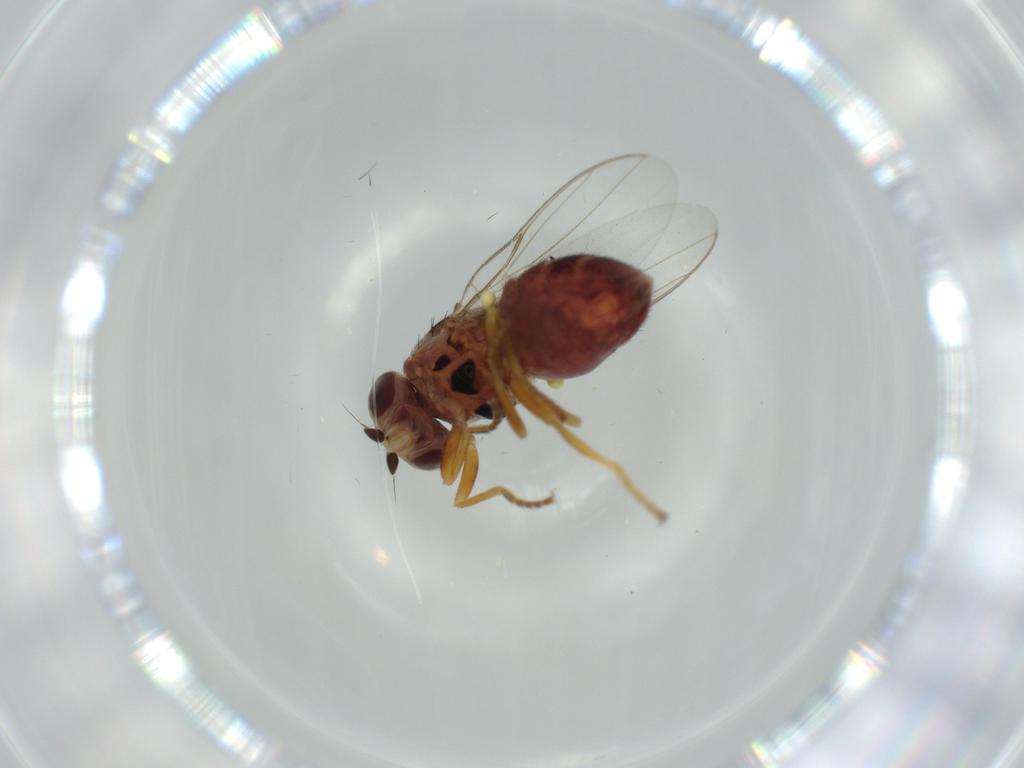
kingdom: Animalia
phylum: Arthropoda
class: Insecta
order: Diptera
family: Chloropidae
